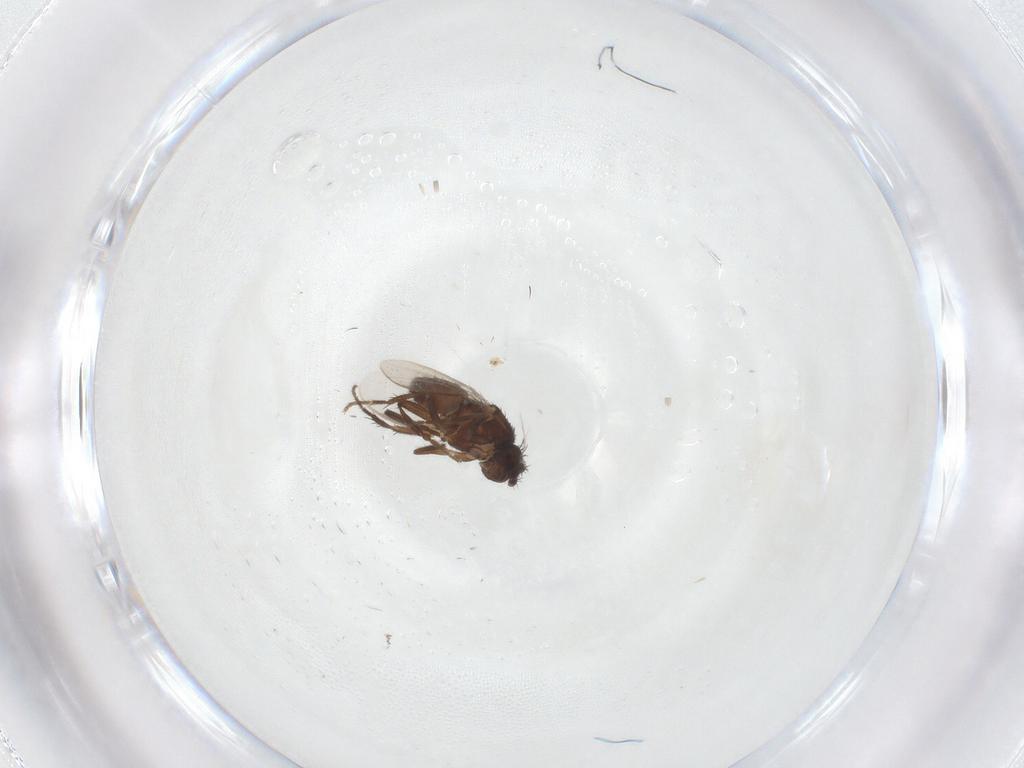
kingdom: Animalia
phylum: Arthropoda
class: Insecta
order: Diptera
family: Sphaeroceridae
